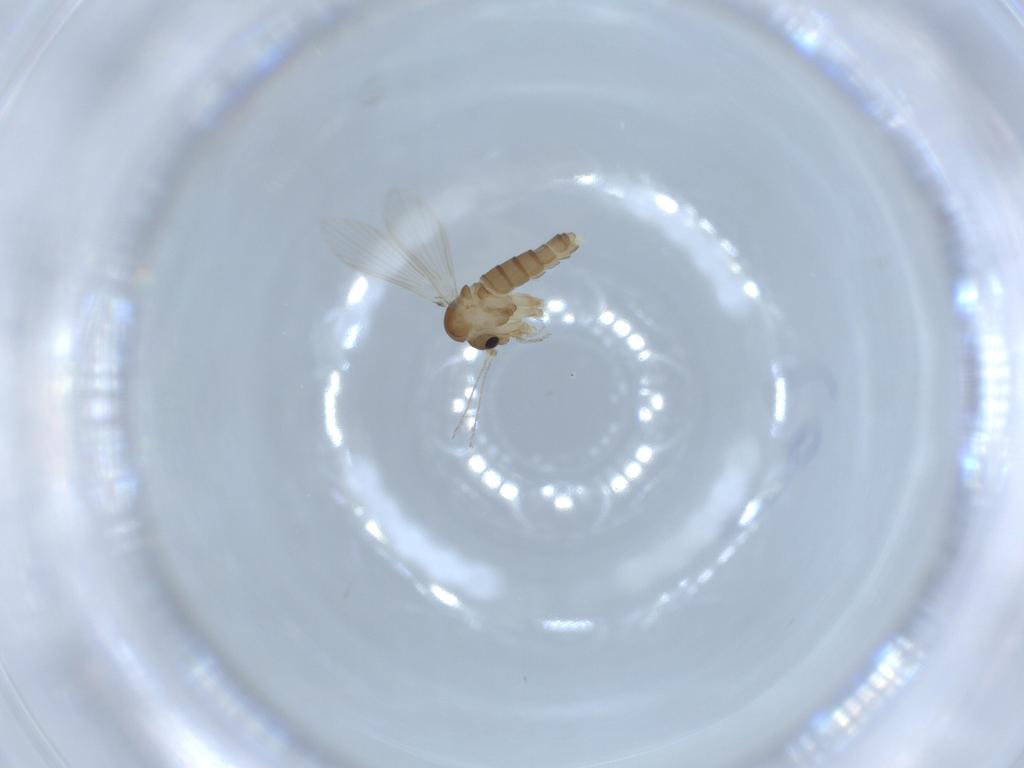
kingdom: Animalia
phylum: Arthropoda
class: Insecta
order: Diptera
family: Psychodidae
